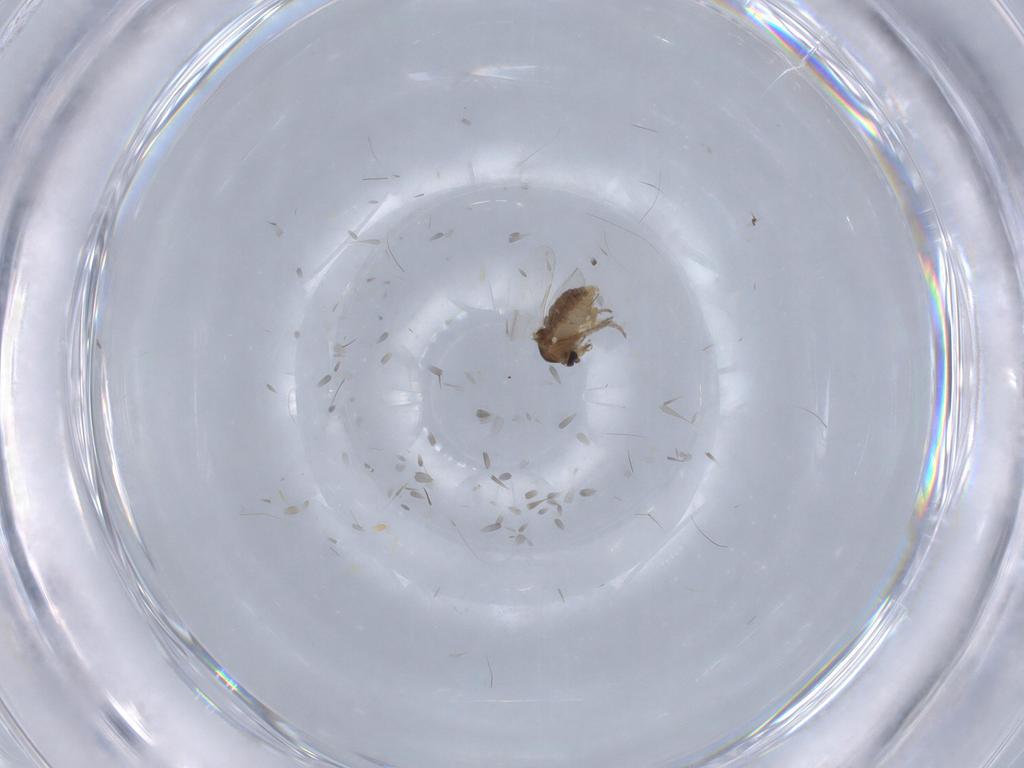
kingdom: Animalia
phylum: Arthropoda
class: Insecta
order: Diptera
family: Ceratopogonidae
